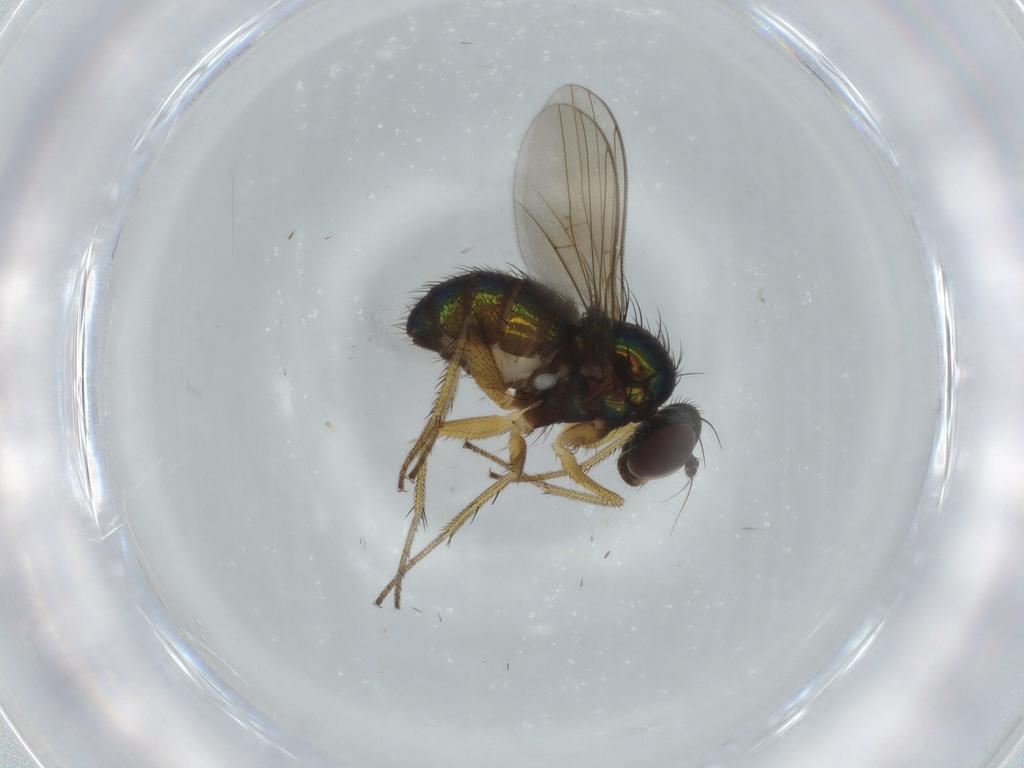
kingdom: Animalia
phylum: Arthropoda
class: Insecta
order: Diptera
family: Dolichopodidae
